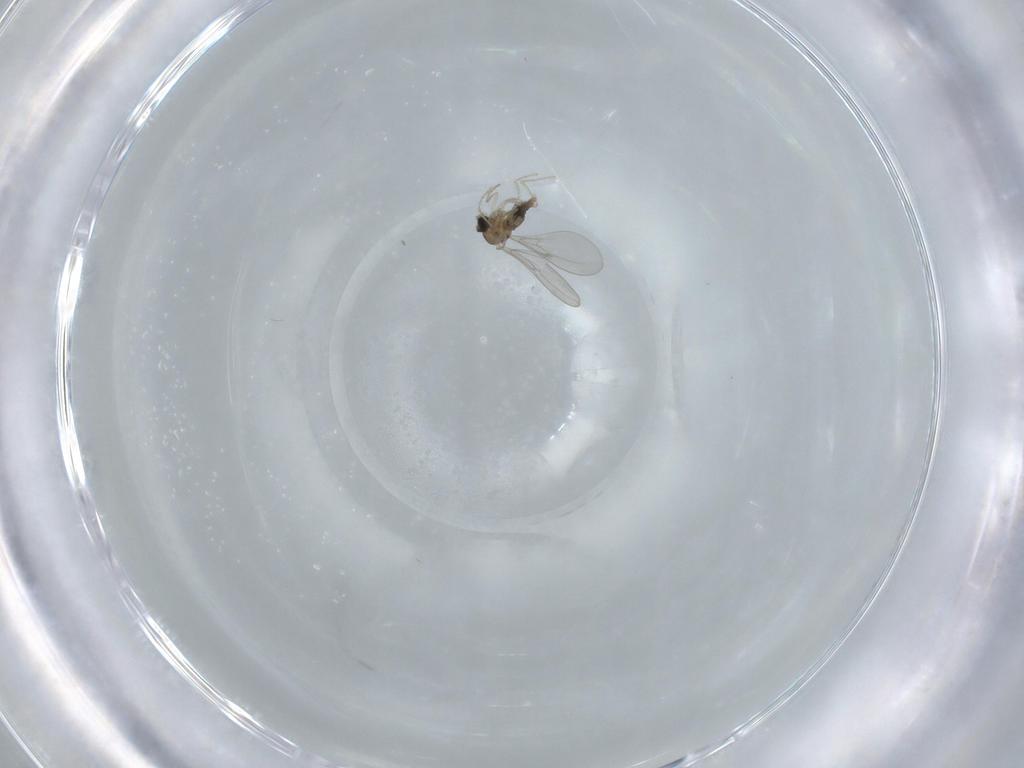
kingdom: Animalia
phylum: Arthropoda
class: Insecta
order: Diptera
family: Cecidomyiidae
